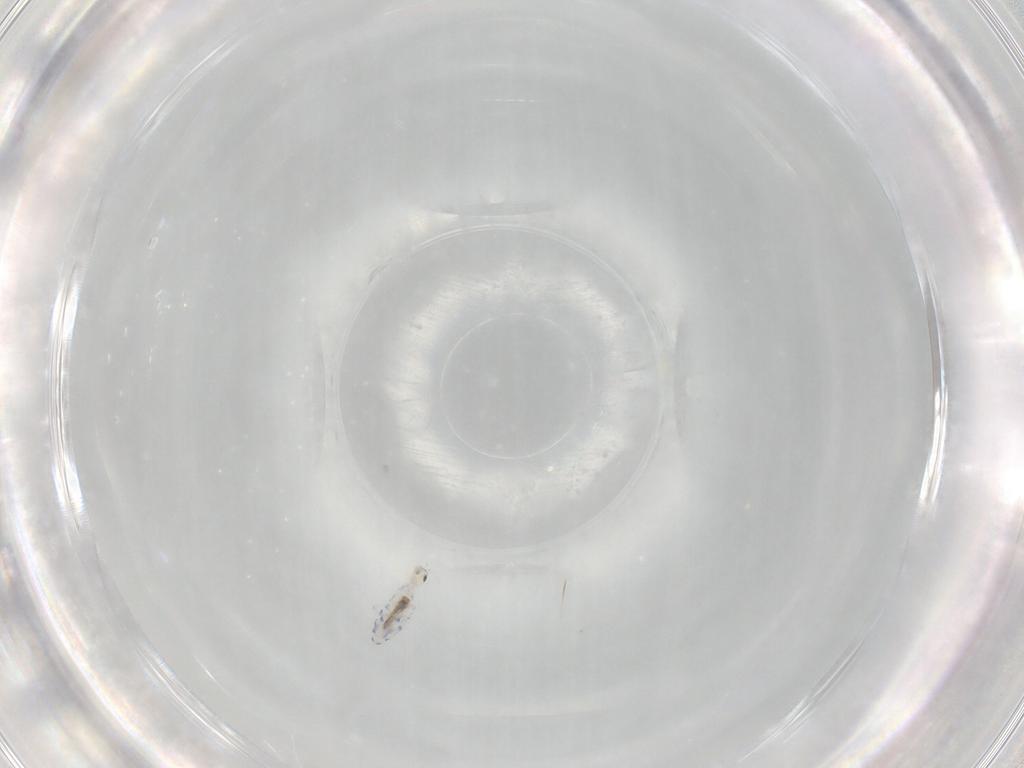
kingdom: Animalia
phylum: Arthropoda
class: Collembola
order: Entomobryomorpha
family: Entomobryidae
